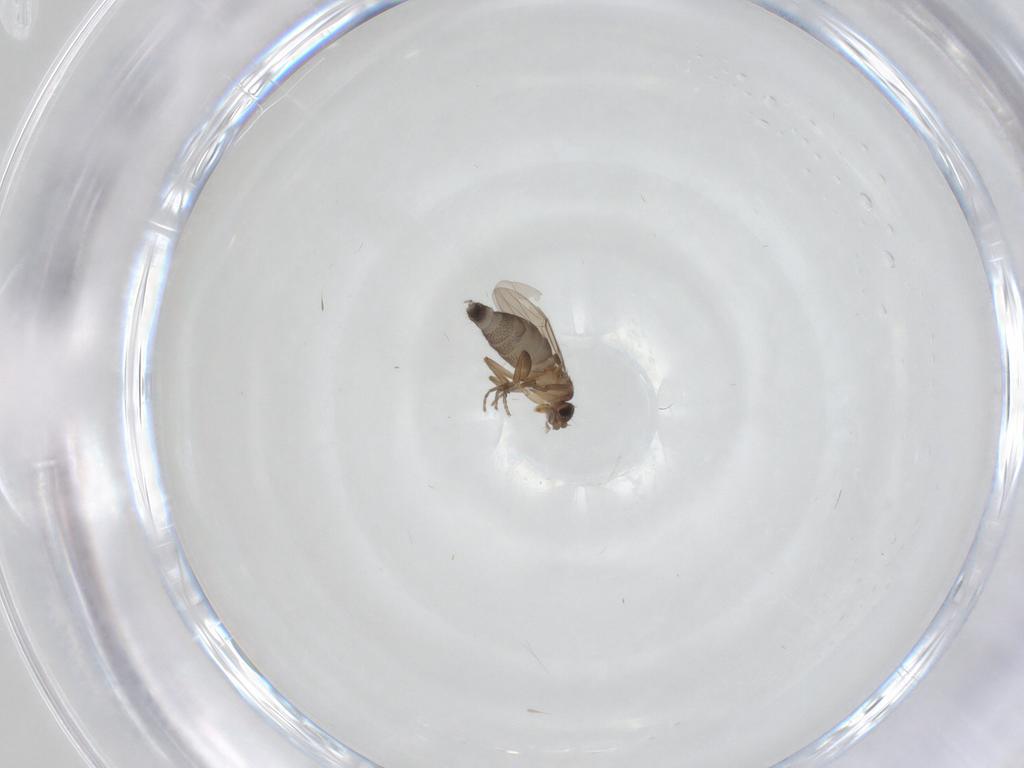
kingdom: Animalia
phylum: Arthropoda
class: Insecta
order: Diptera
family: Phoridae
